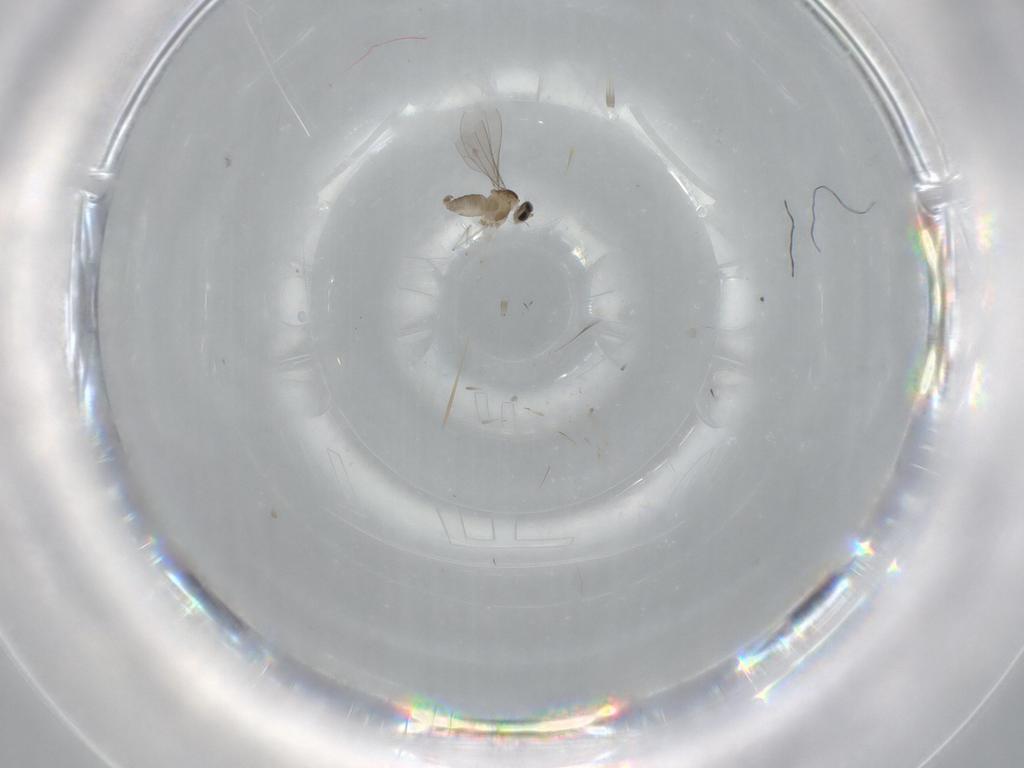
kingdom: Animalia
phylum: Arthropoda
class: Insecta
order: Diptera
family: Cecidomyiidae
